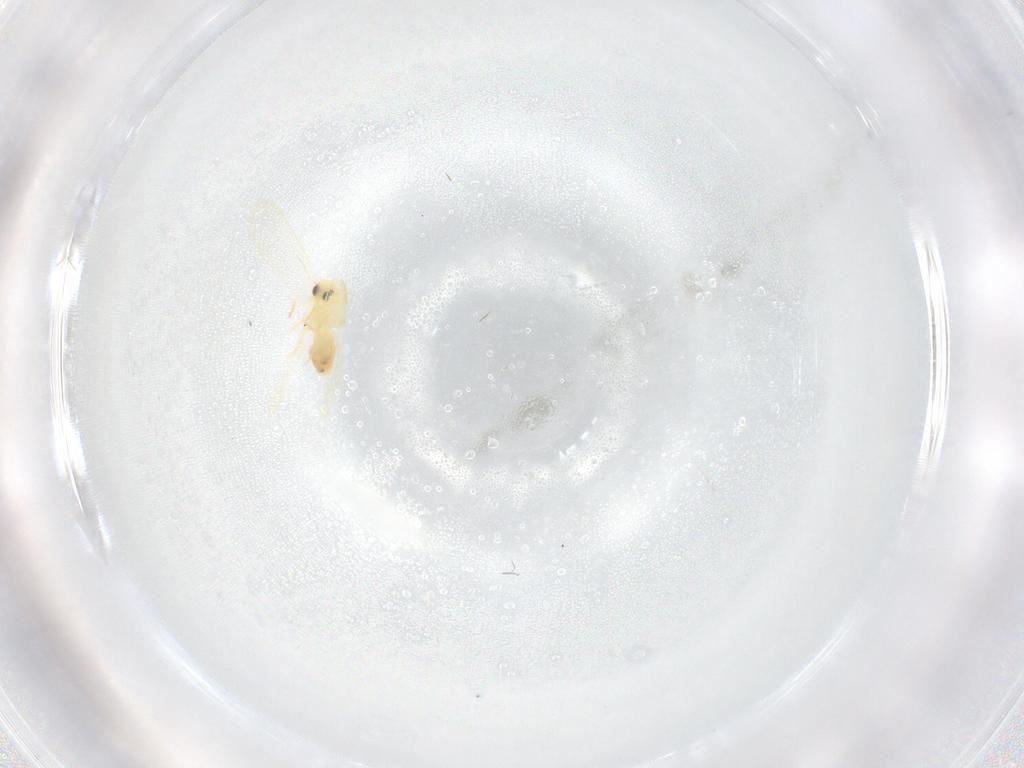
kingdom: Animalia
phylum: Arthropoda
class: Insecta
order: Hemiptera
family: Aleyrodidae
